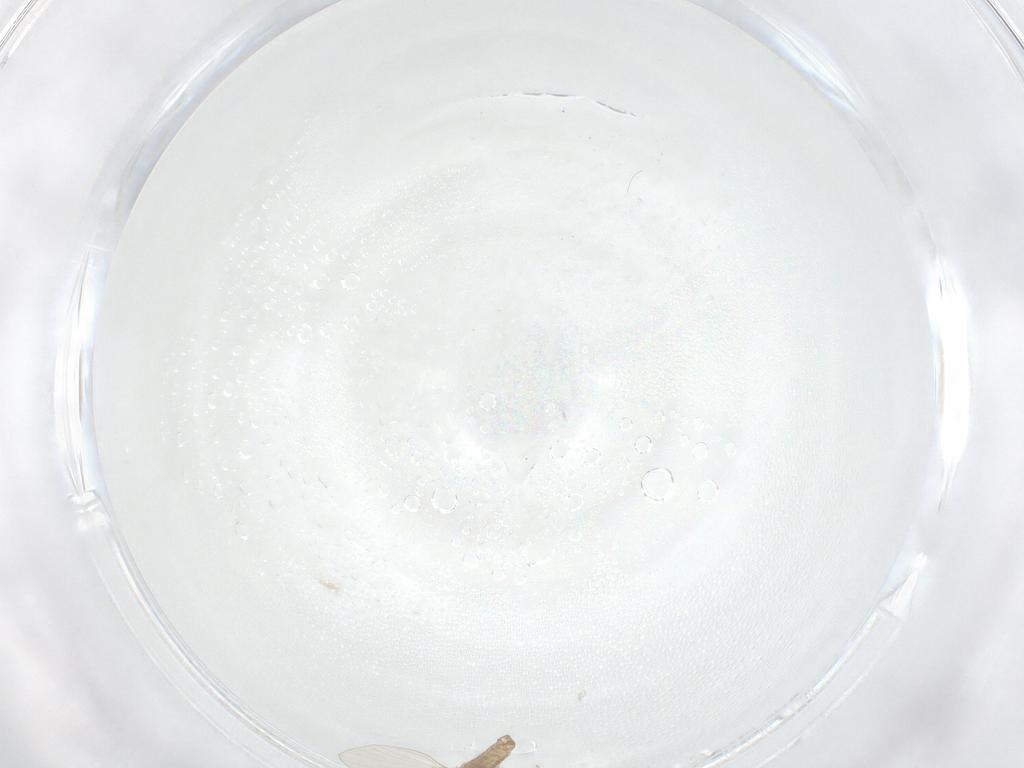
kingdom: Animalia
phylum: Arthropoda
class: Insecta
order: Diptera
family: Psychodidae
